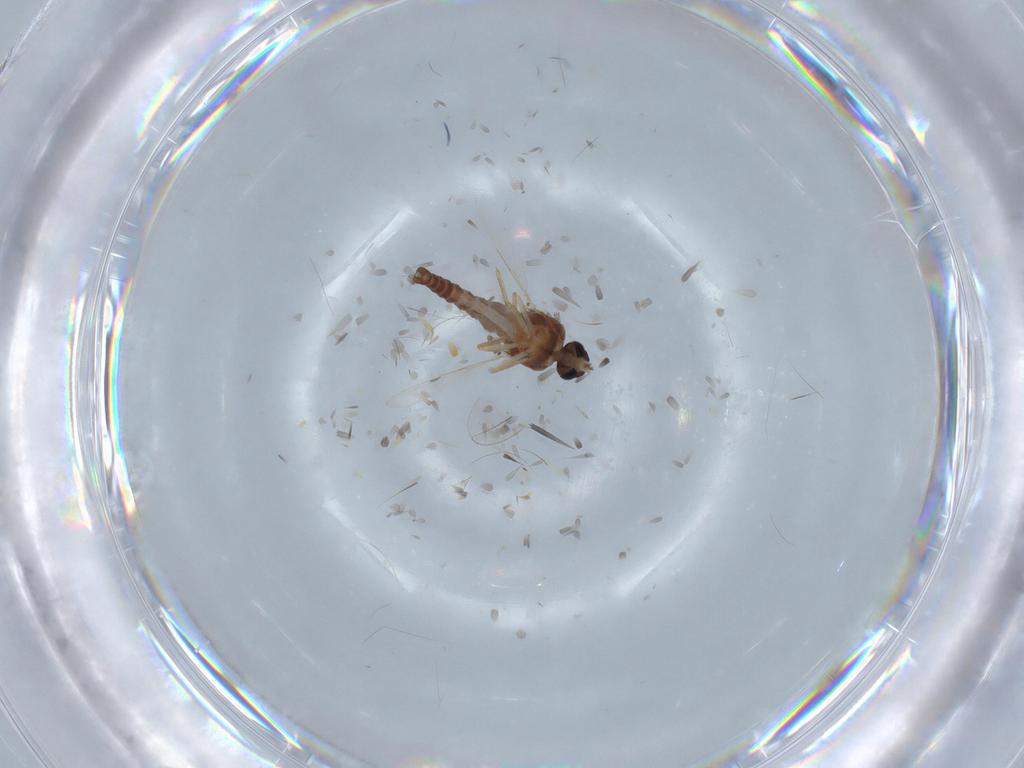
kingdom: Animalia
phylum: Arthropoda
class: Insecta
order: Diptera
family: Ceratopogonidae
